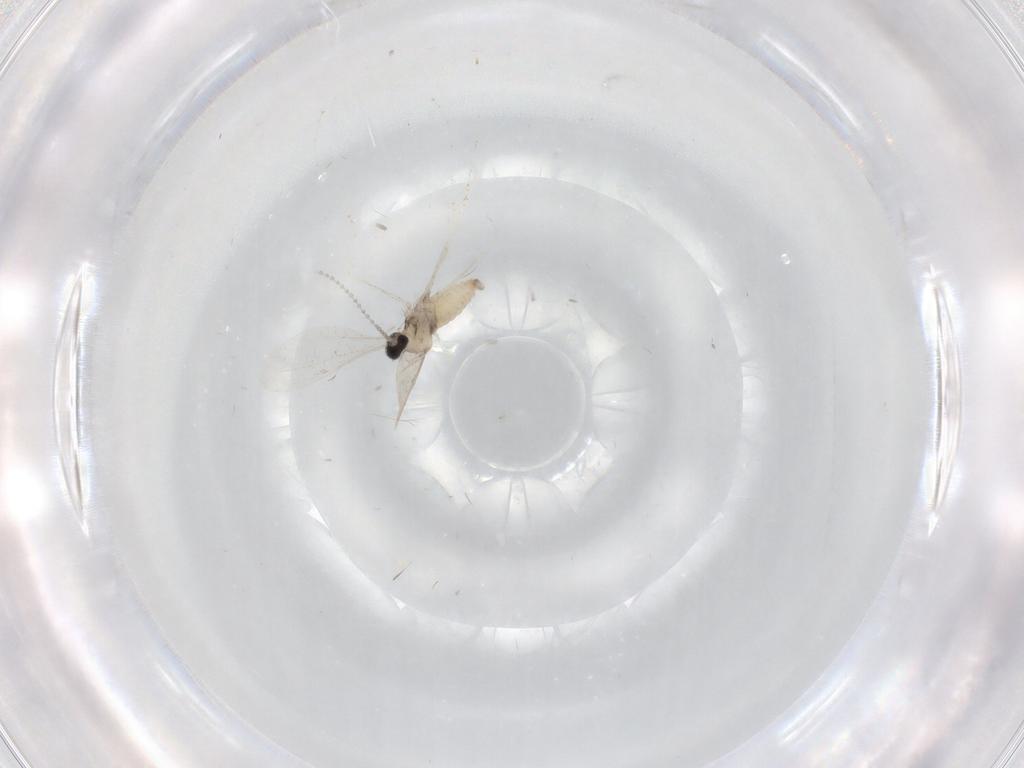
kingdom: Animalia
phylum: Arthropoda
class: Insecta
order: Diptera
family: Cecidomyiidae
